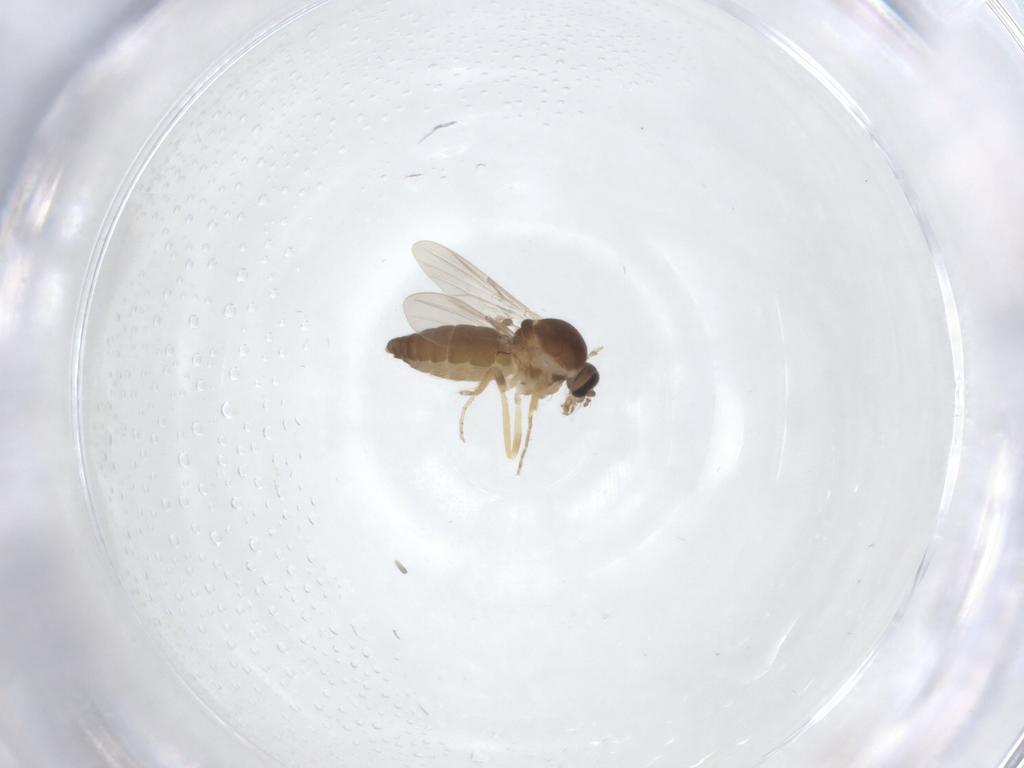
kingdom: Animalia
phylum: Arthropoda
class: Insecta
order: Diptera
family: Ceratopogonidae
